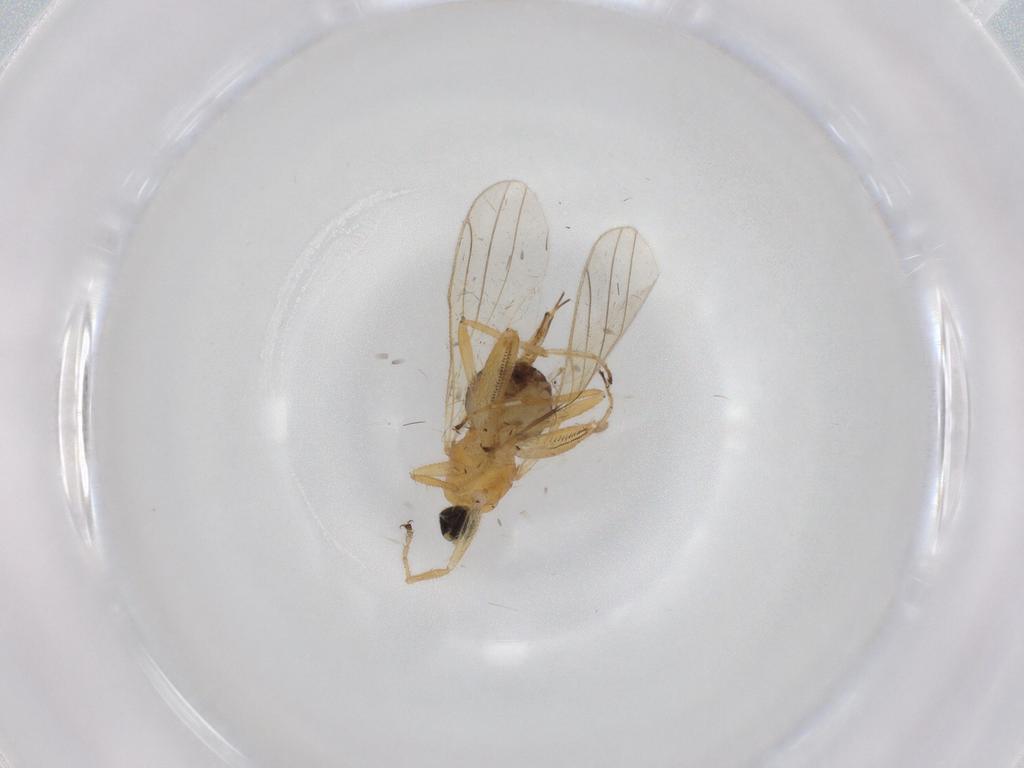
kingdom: Animalia
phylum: Arthropoda
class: Insecta
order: Diptera
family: Hybotidae
